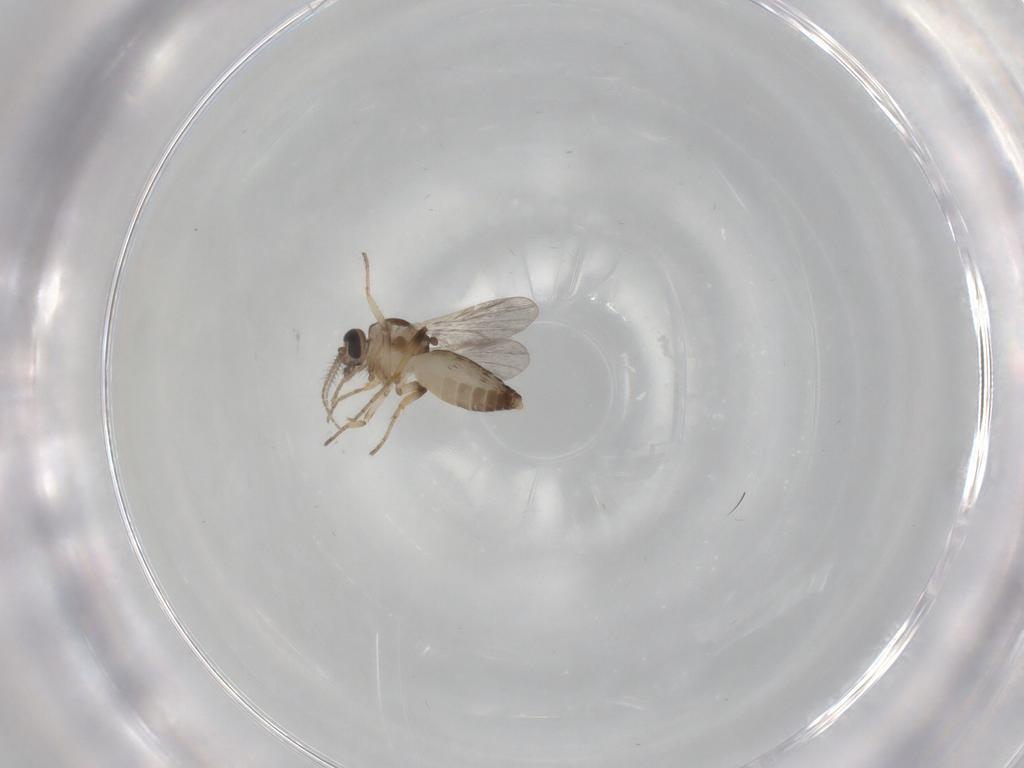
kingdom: Animalia
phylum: Arthropoda
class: Insecta
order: Diptera
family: Ceratopogonidae
